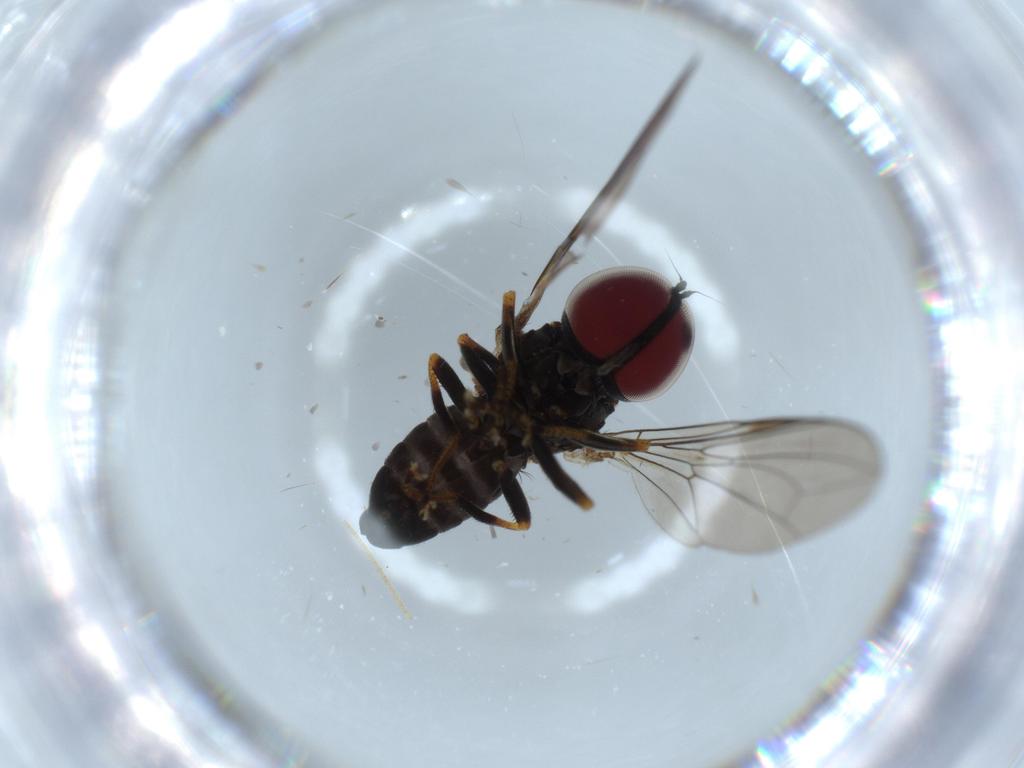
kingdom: Animalia
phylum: Arthropoda
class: Insecta
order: Diptera
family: Pipunculidae
